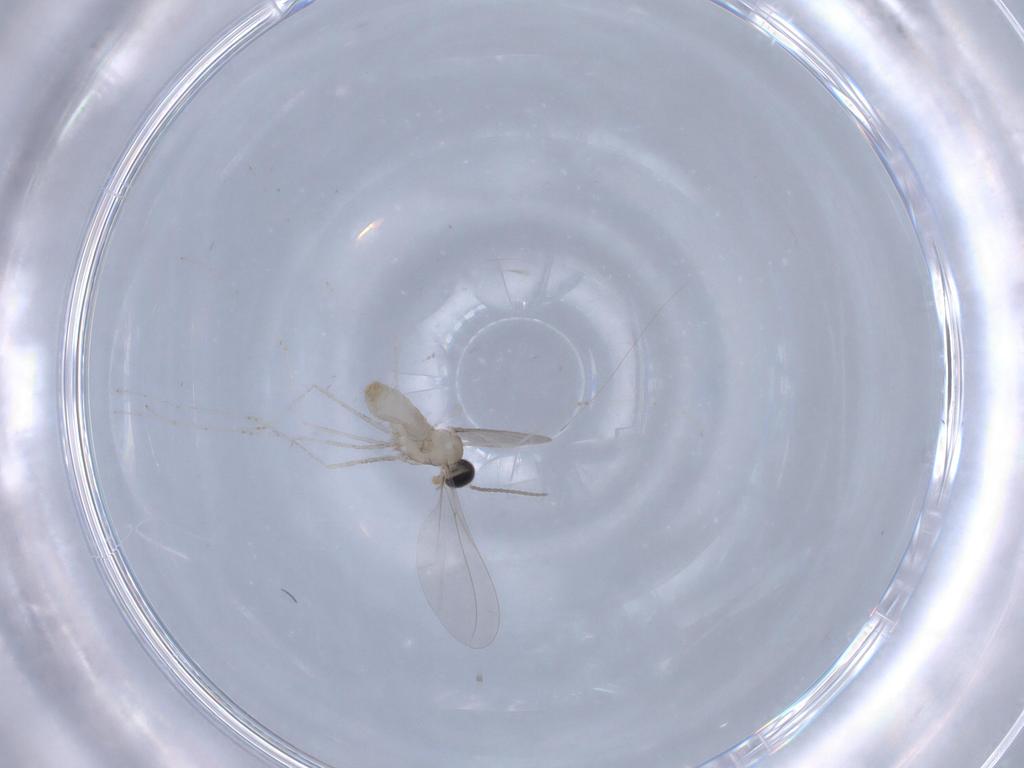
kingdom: Animalia
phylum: Arthropoda
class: Insecta
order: Diptera
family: Cecidomyiidae
